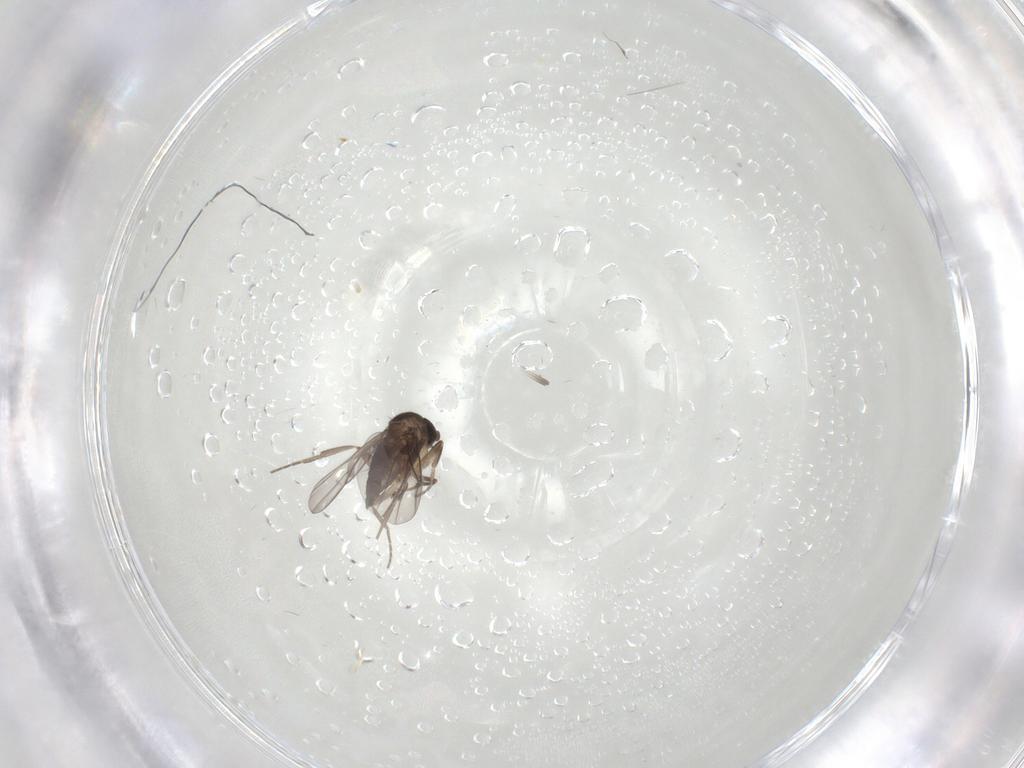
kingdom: Animalia
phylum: Arthropoda
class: Insecta
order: Diptera
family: Phoridae
